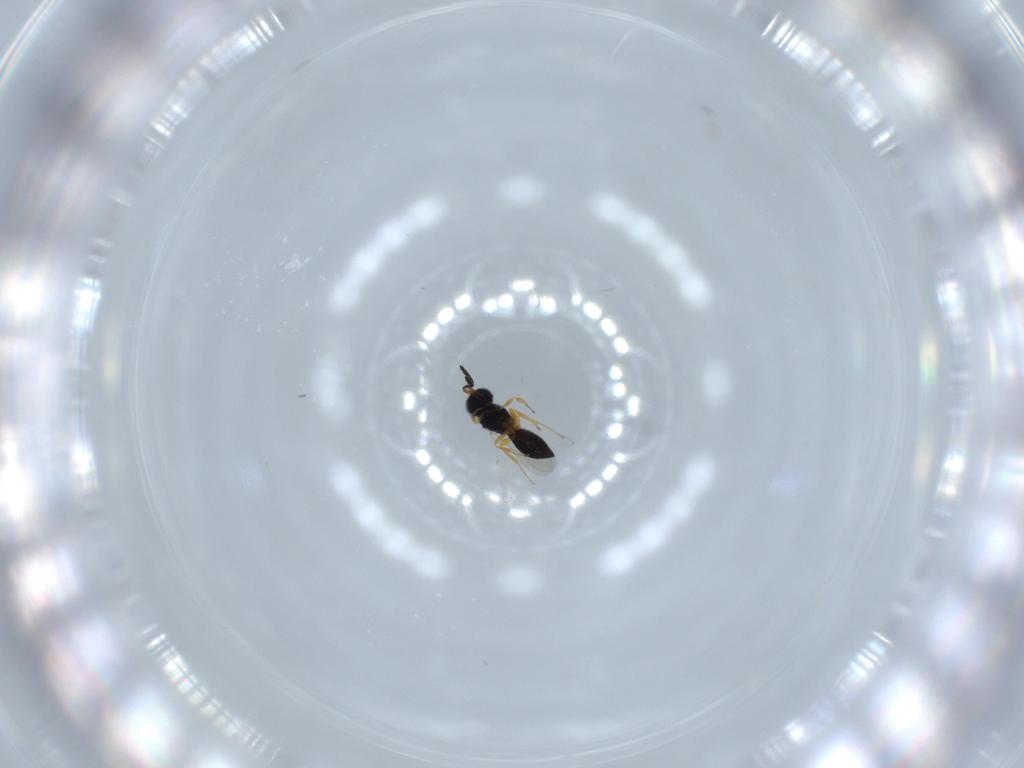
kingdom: Animalia
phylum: Arthropoda
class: Insecta
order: Hymenoptera
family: Scelionidae
